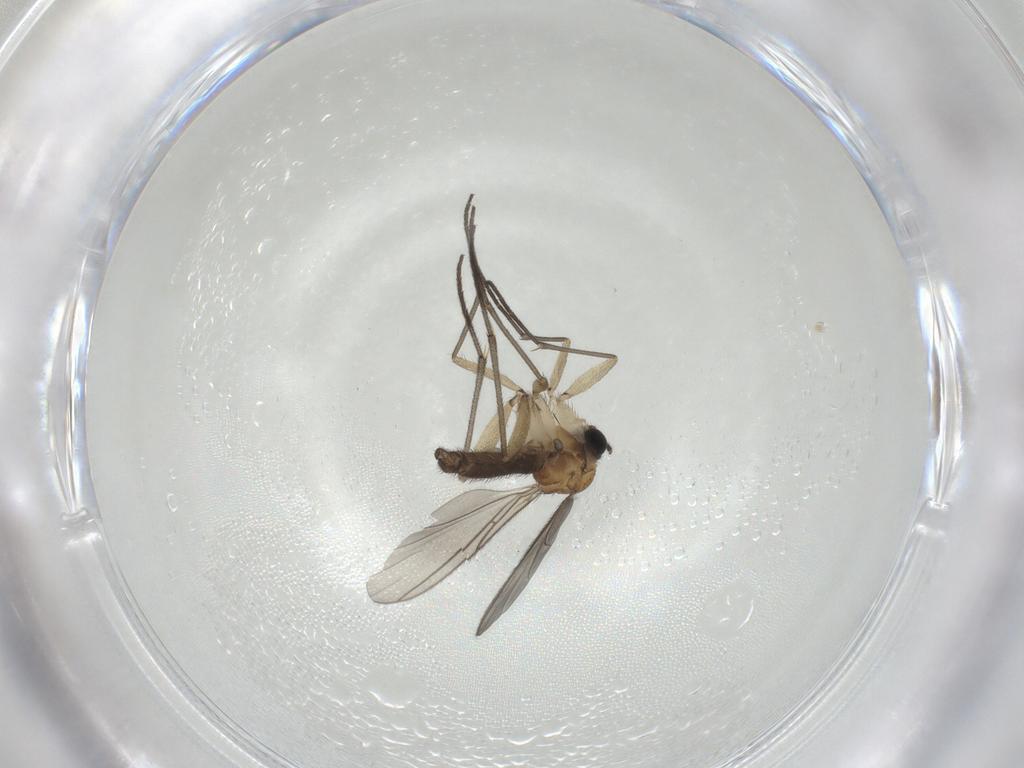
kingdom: Animalia
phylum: Arthropoda
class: Insecta
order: Diptera
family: Sciaridae
